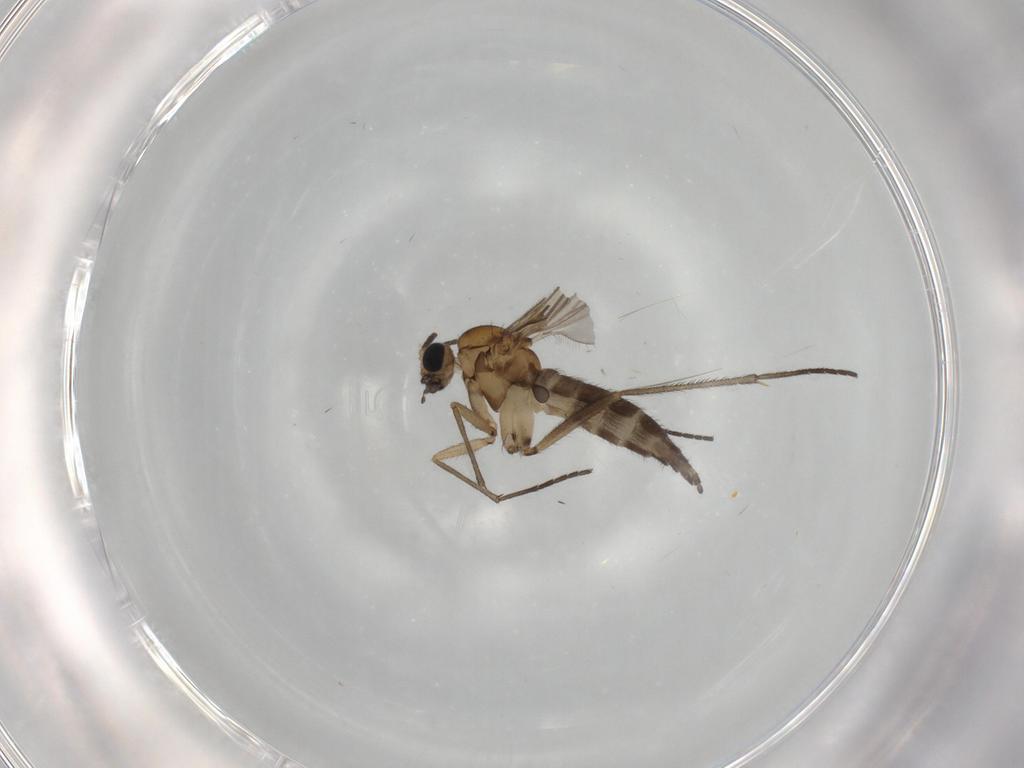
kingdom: Animalia
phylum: Arthropoda
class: Insecta
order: Diptera
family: Sciaridae
